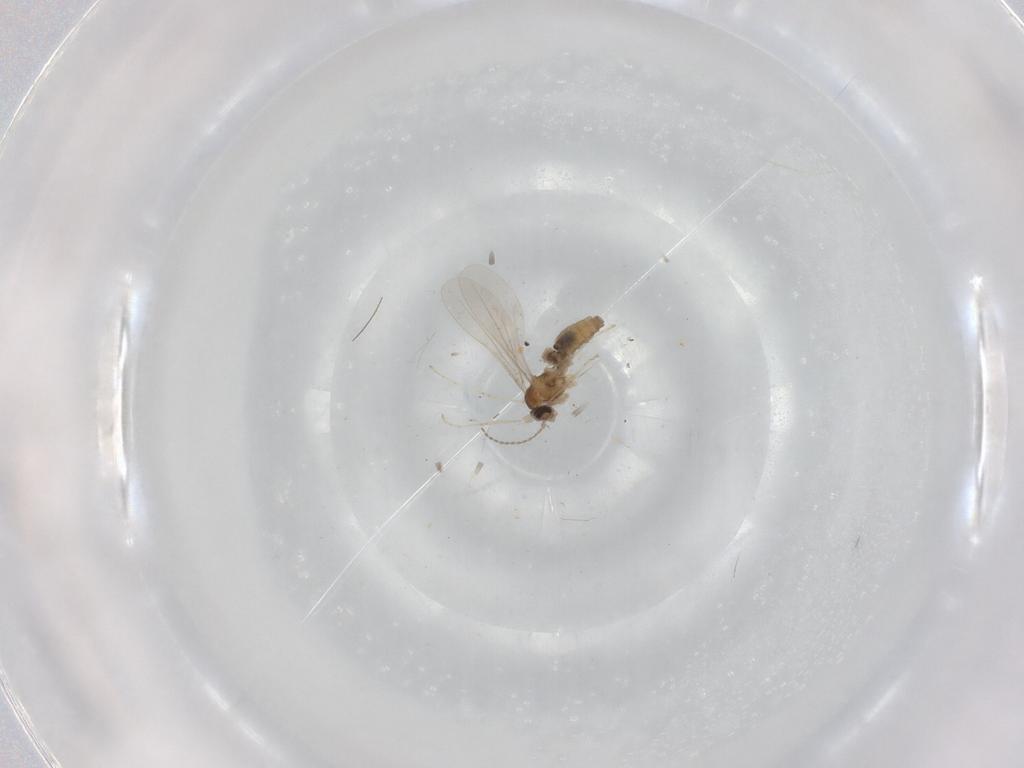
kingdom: Animalia
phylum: Arthropoda
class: Insecta
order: Diptera
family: Cecidomyiidae
